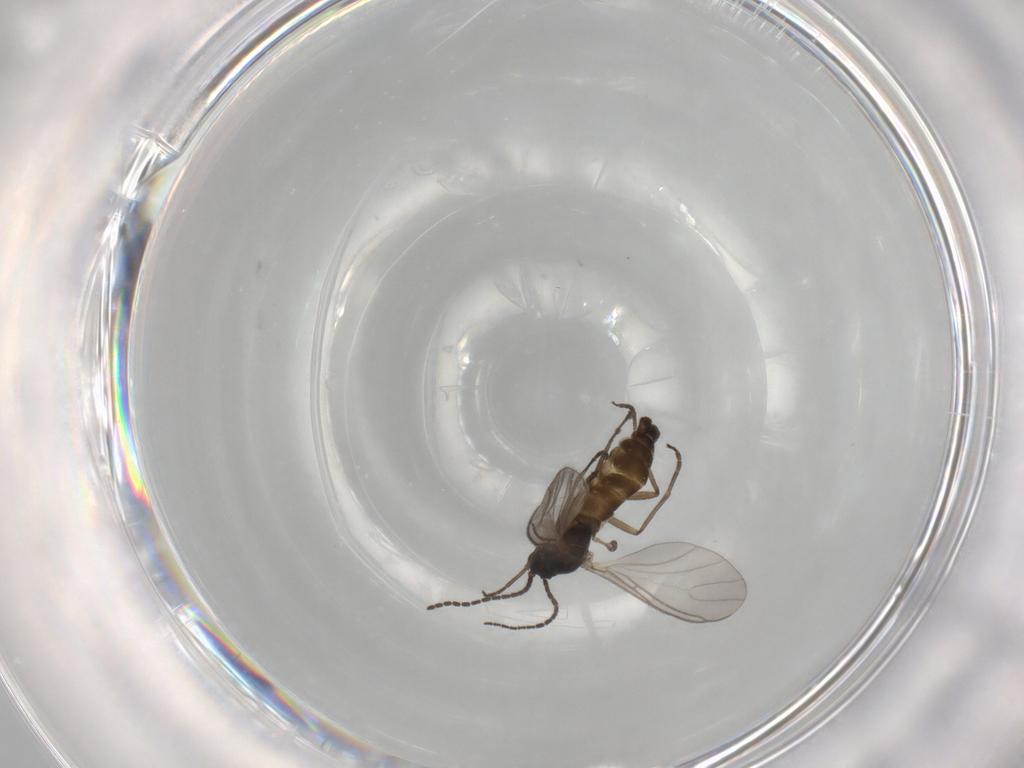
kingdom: Animalia
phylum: Arthropoda
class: Insecta
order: Diptera
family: Sciaridae
